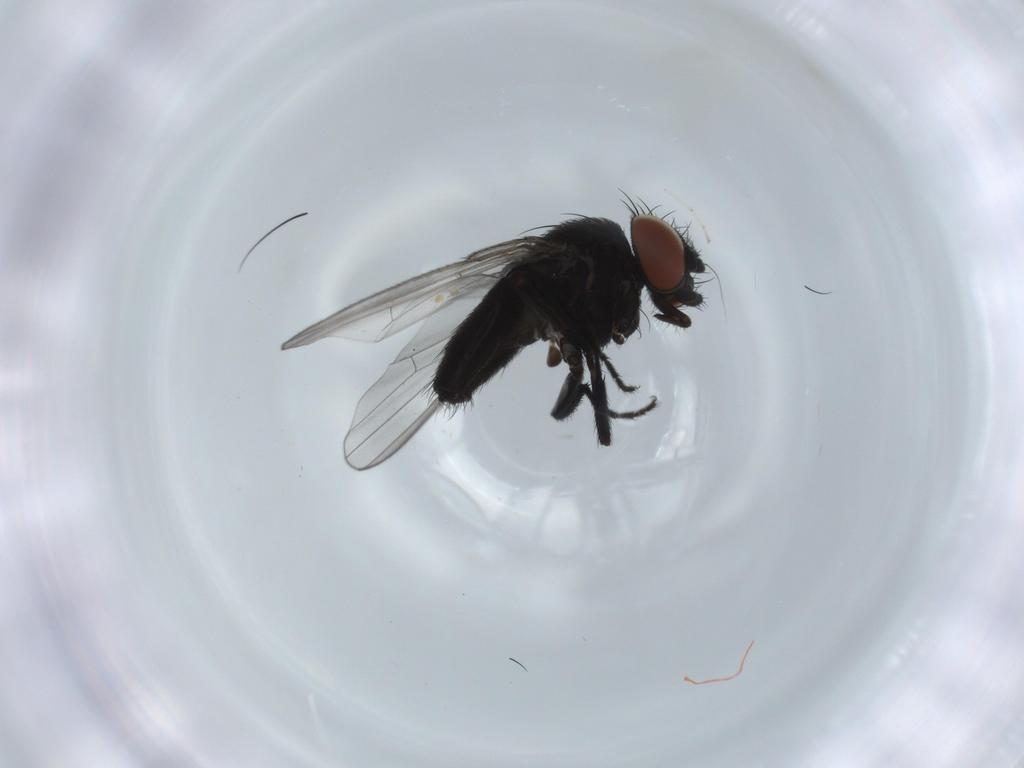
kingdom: Animalia
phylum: Arthropoda
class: Insecta
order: Diptera
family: Milichiidae
